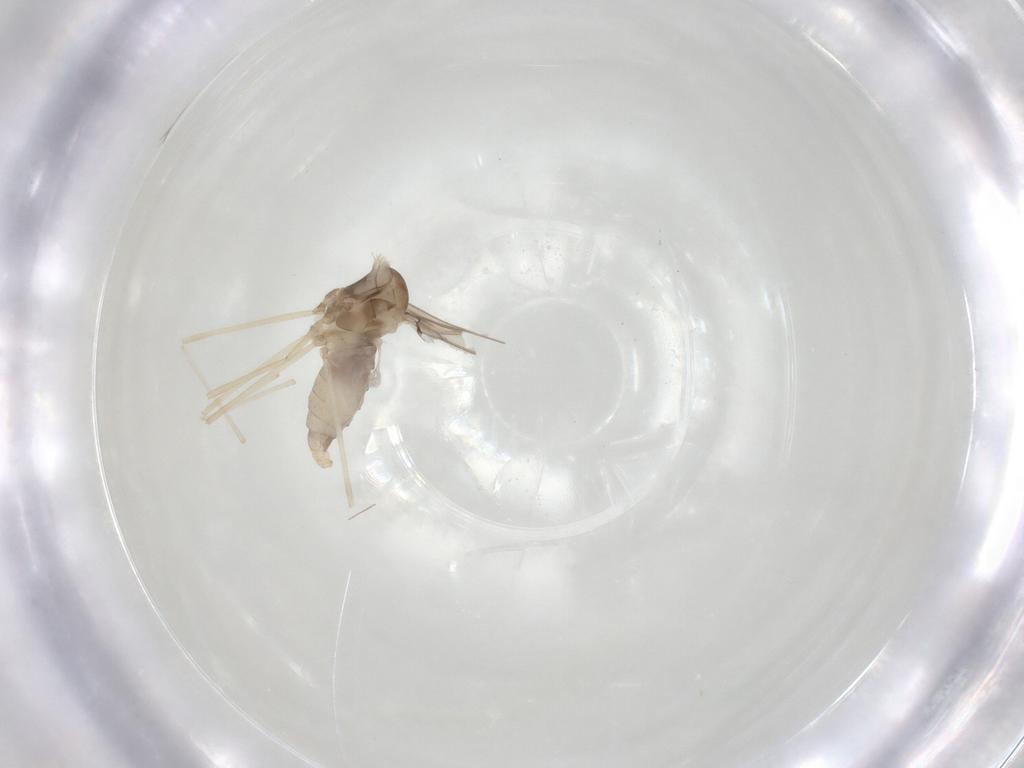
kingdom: Animalia
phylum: Arthropoda
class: Insecta
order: Diptera
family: Cecidomyiidae
